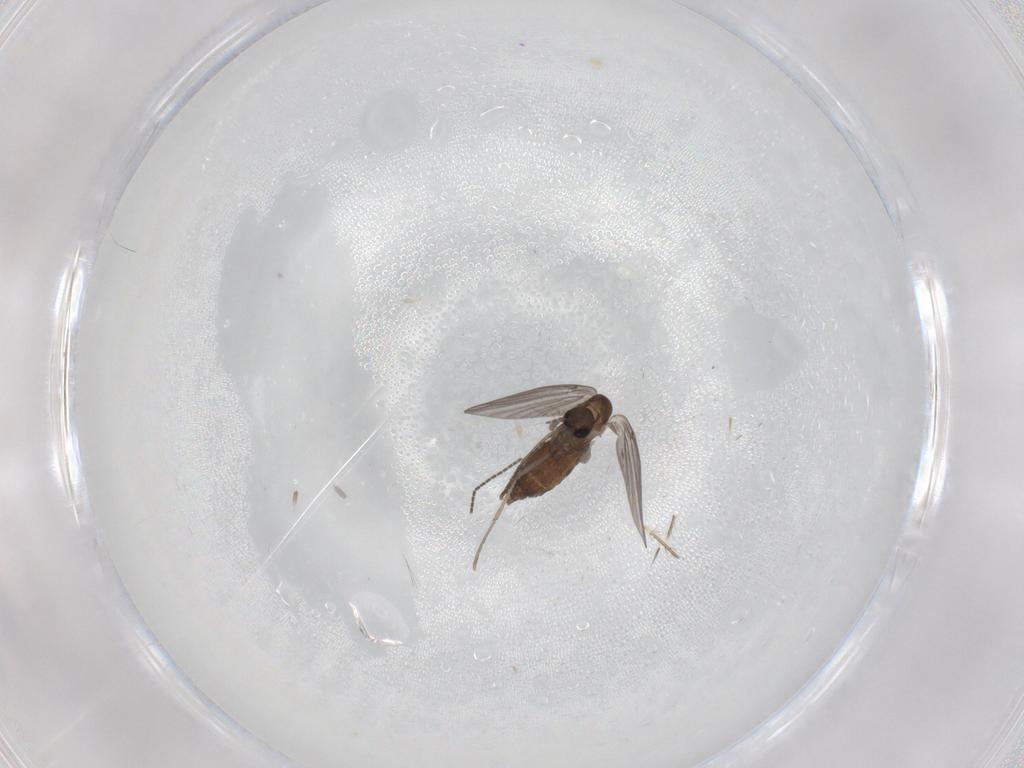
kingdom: Animalia
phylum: Arthropoda
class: Insecta
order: Diptera
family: Sciaridae
